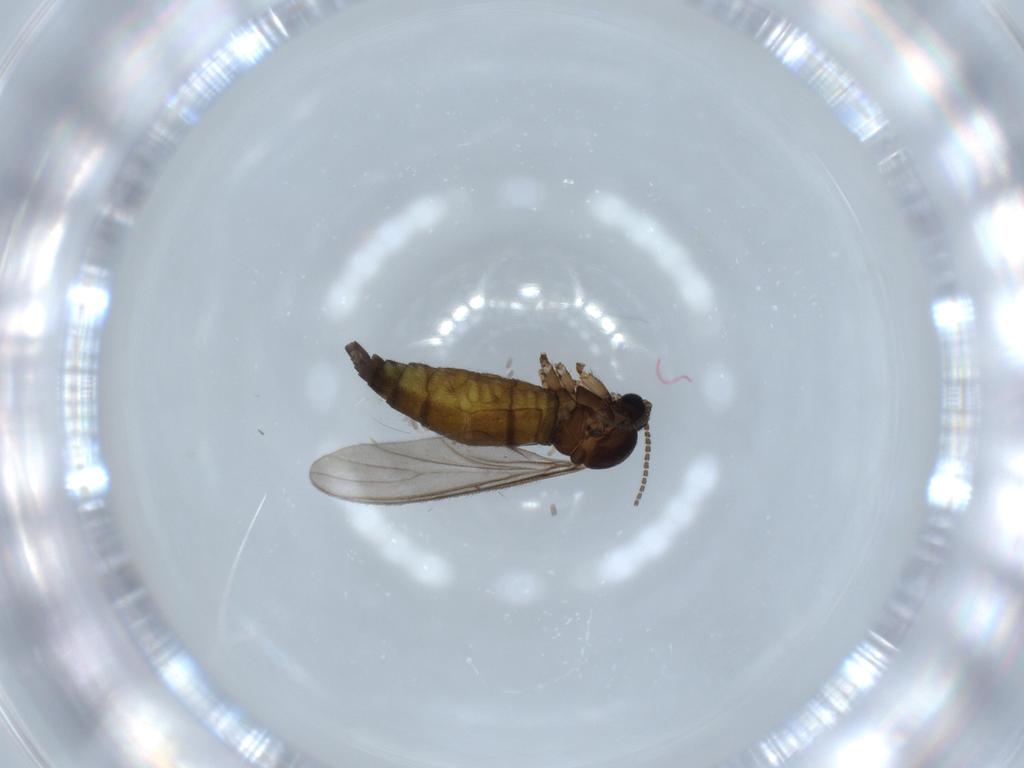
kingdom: Animalia
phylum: Arthropoda
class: Insecta
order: Diptera
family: Sciaridae
